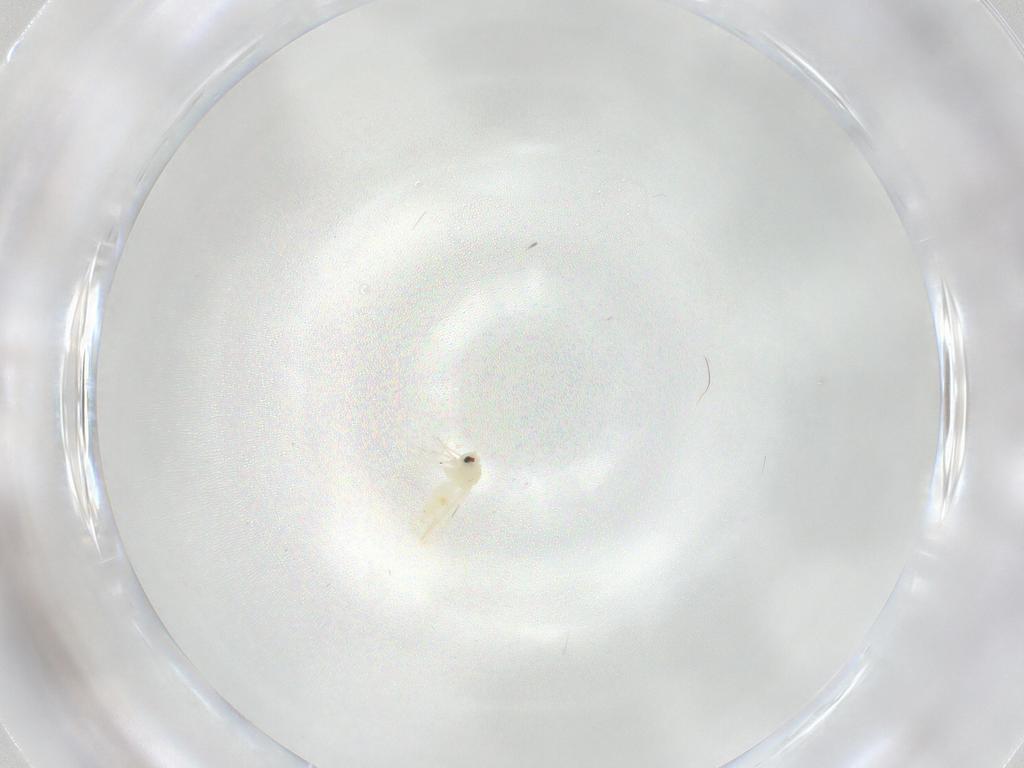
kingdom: Animalia
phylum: Arthropoda
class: Insecta
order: Hemiptera
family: Aleyrodidae
